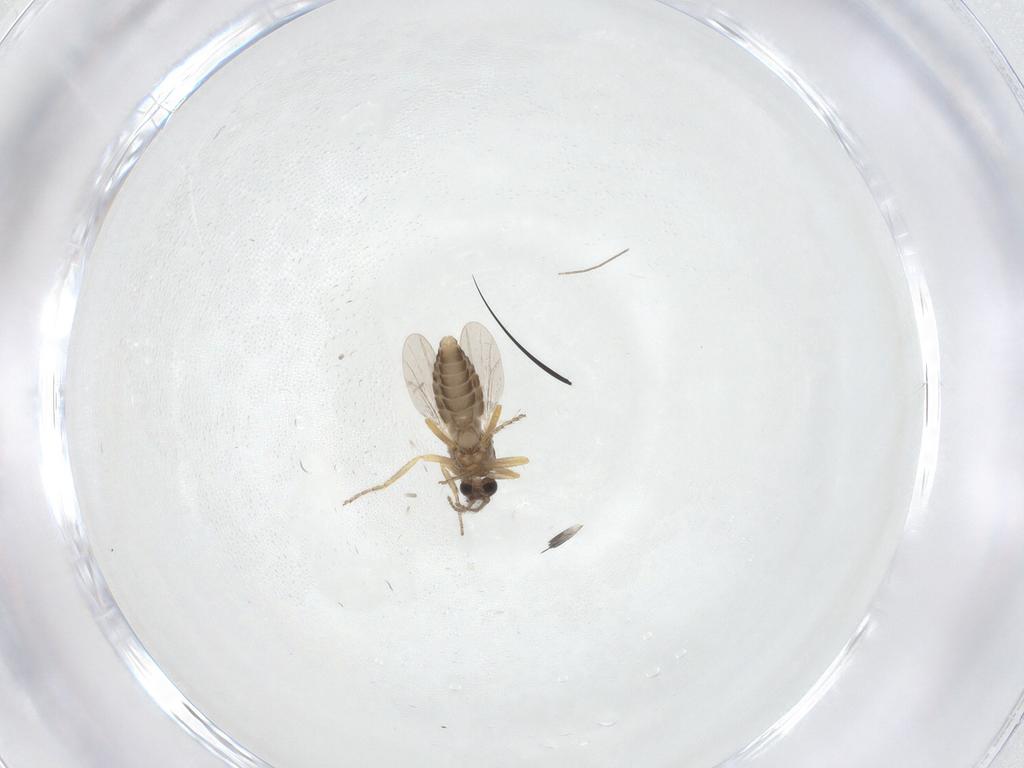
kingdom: Animalia
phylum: Arthropoda
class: Insecta
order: Diptera
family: Ceratopogonidae
